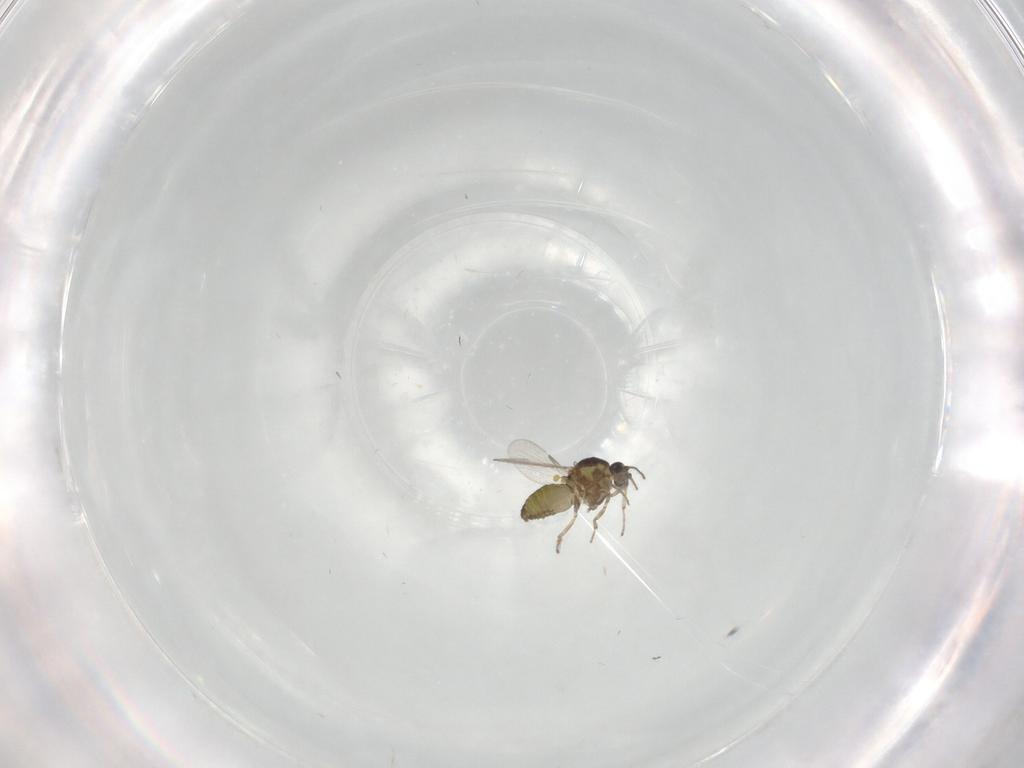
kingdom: Animalia
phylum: Arthropoda
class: Insecta
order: Diptera
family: Ceratopogonidae
